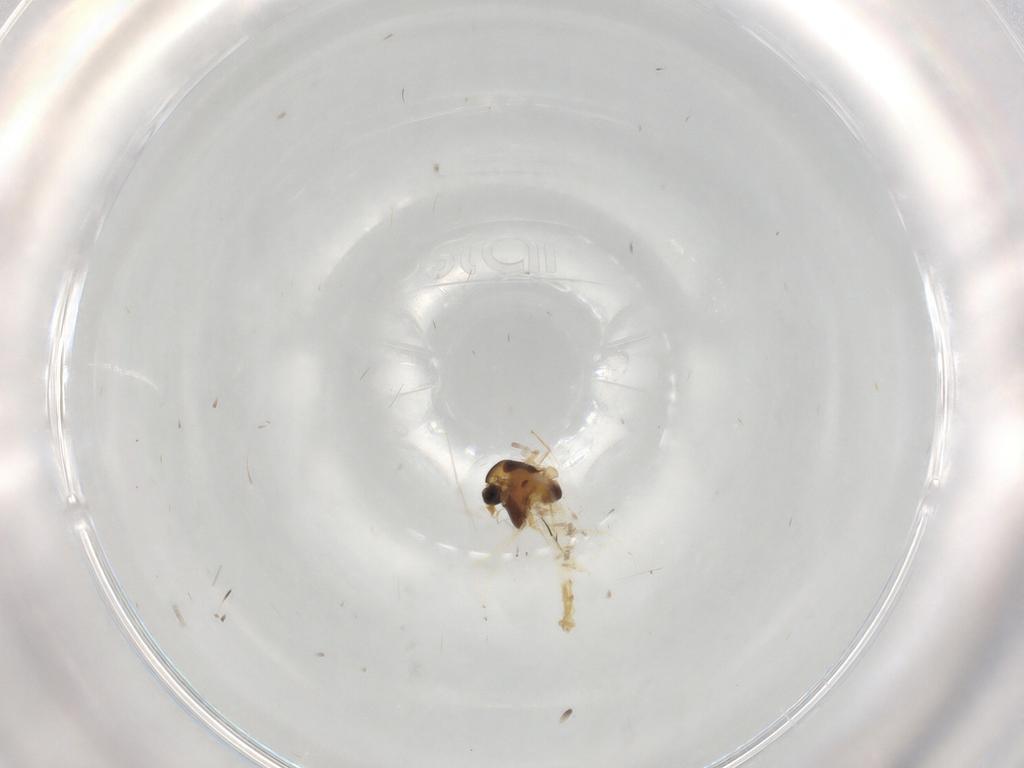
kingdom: Animalia
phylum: Arthropoda
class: Insecta
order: Diptera
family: Chironomidae
